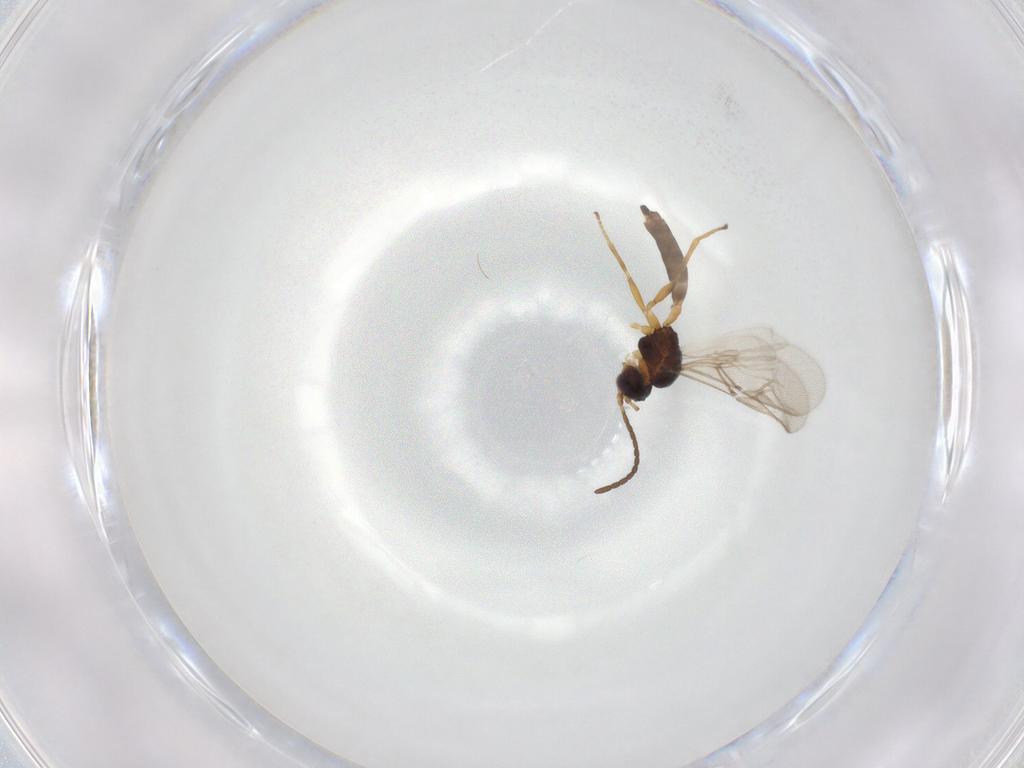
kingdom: Animalia
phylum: Arthropoda
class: Insecta
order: Hymenoptera
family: Braconidae
